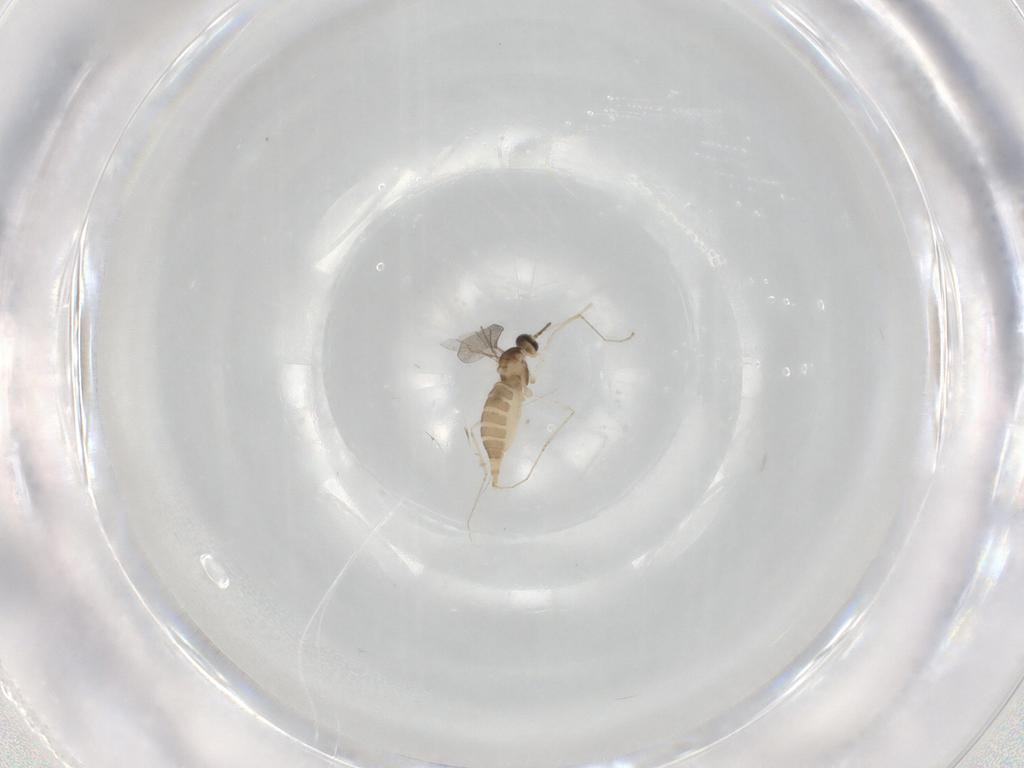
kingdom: Animalia
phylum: Arthropoda
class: Insecta
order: Diptera
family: Cecidomyiidae
